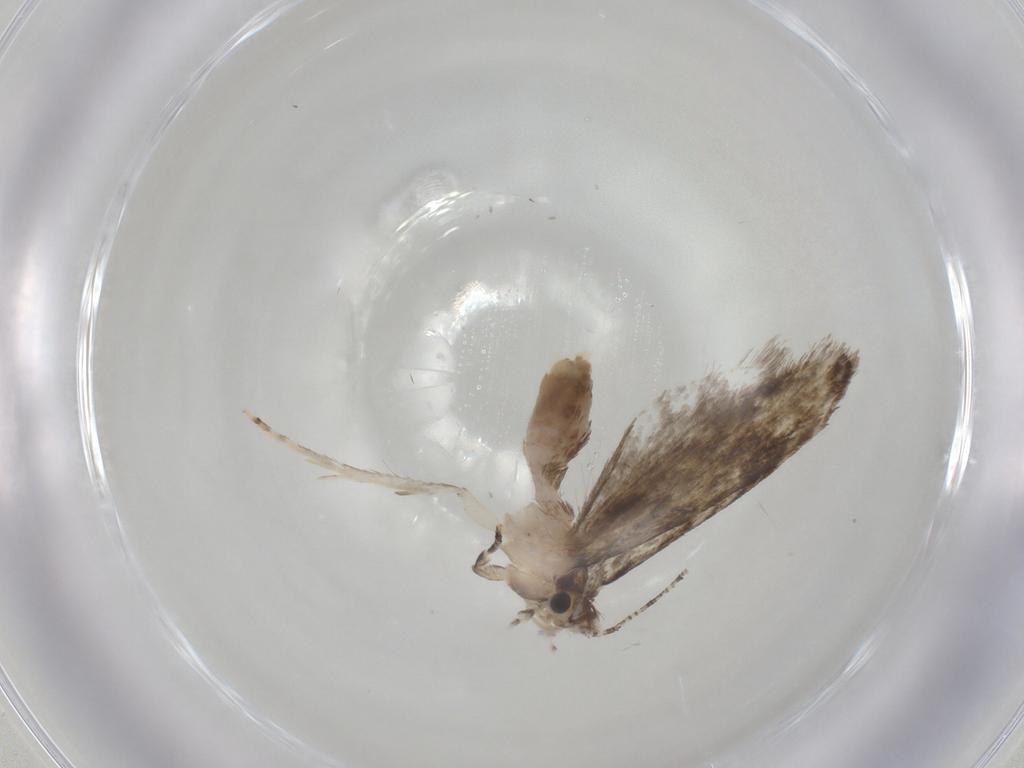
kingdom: Animalia
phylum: Arthropoda
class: Insecta
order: Lepidoptera
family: Tineidae
